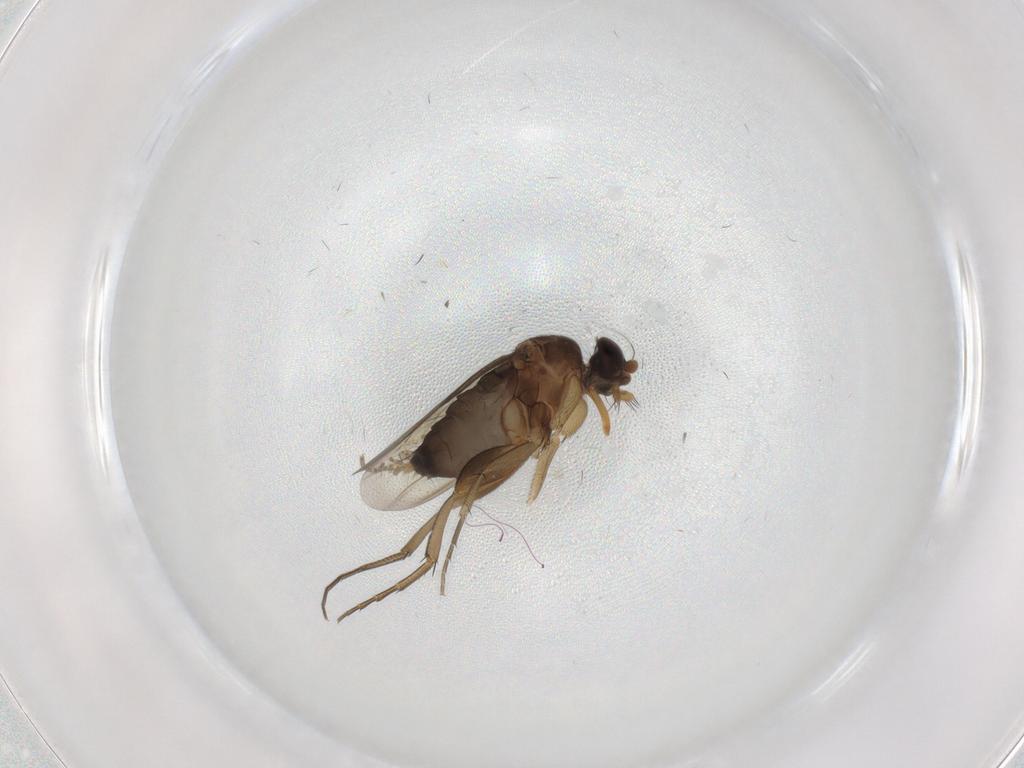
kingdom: Animalia
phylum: Arthropoda
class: Insecta
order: Diptera
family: Phoridae
